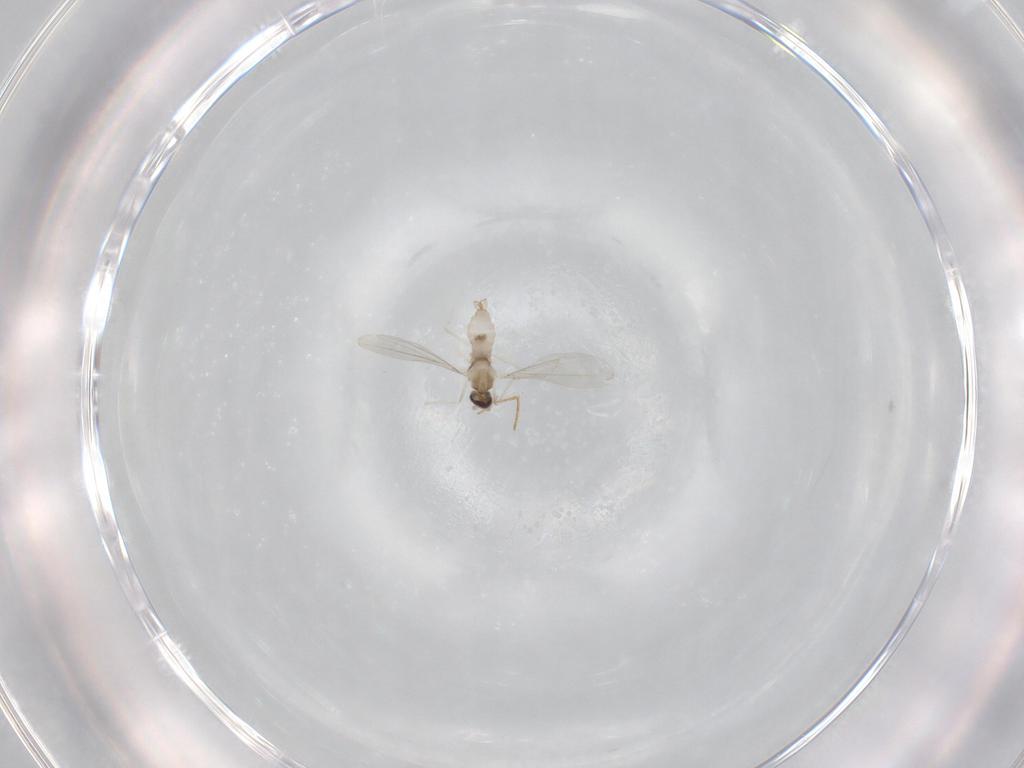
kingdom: Animalia
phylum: Arthropoda
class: Insecta
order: Diptera
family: Cecidomyiidae
